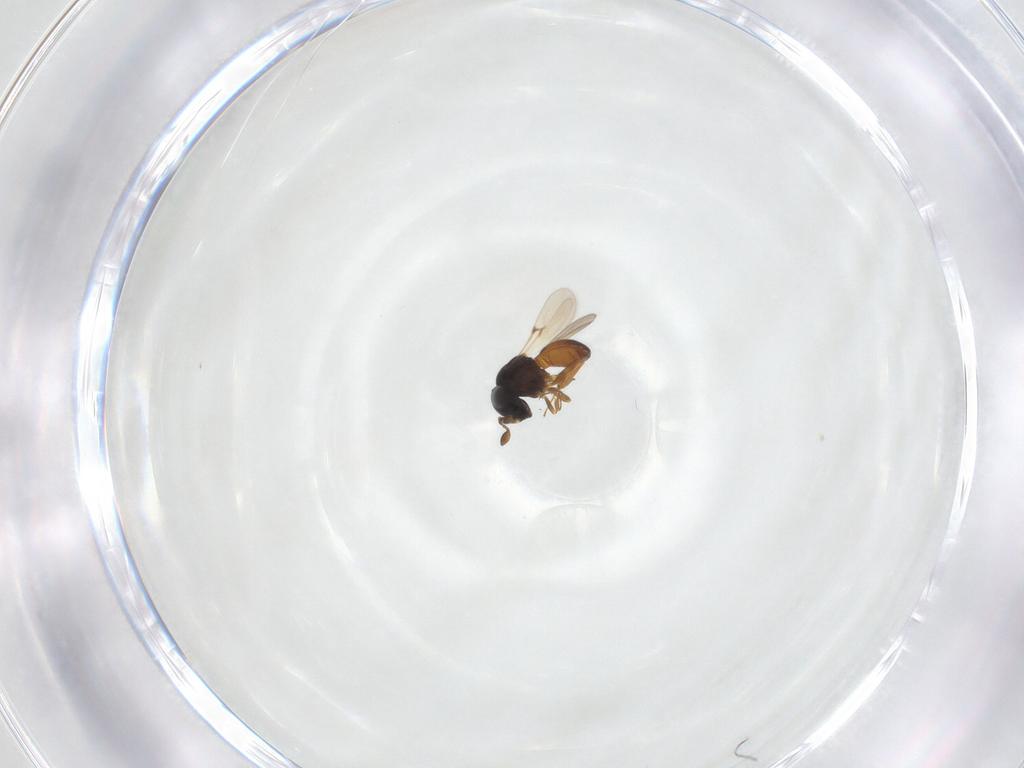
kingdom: Animalia
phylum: Arthropoda
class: Insecta
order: Hymenoptera
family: Scelionidae
